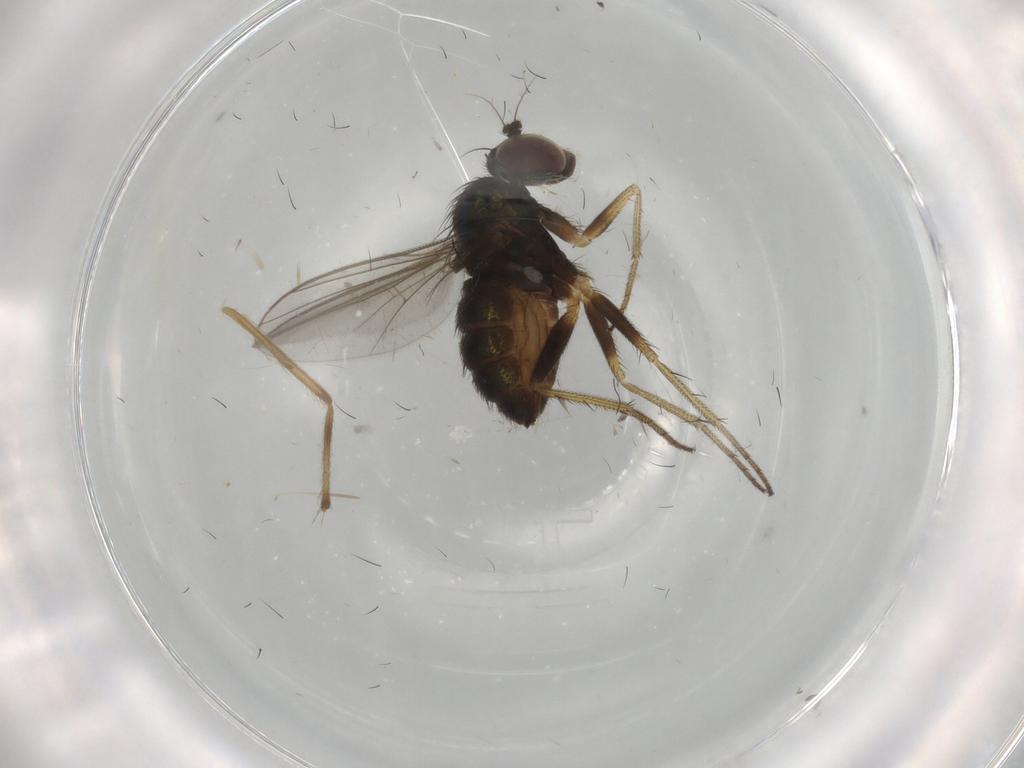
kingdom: Animalia
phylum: Arthropoda
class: Insecta
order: Diptera
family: Dolichopodidae
